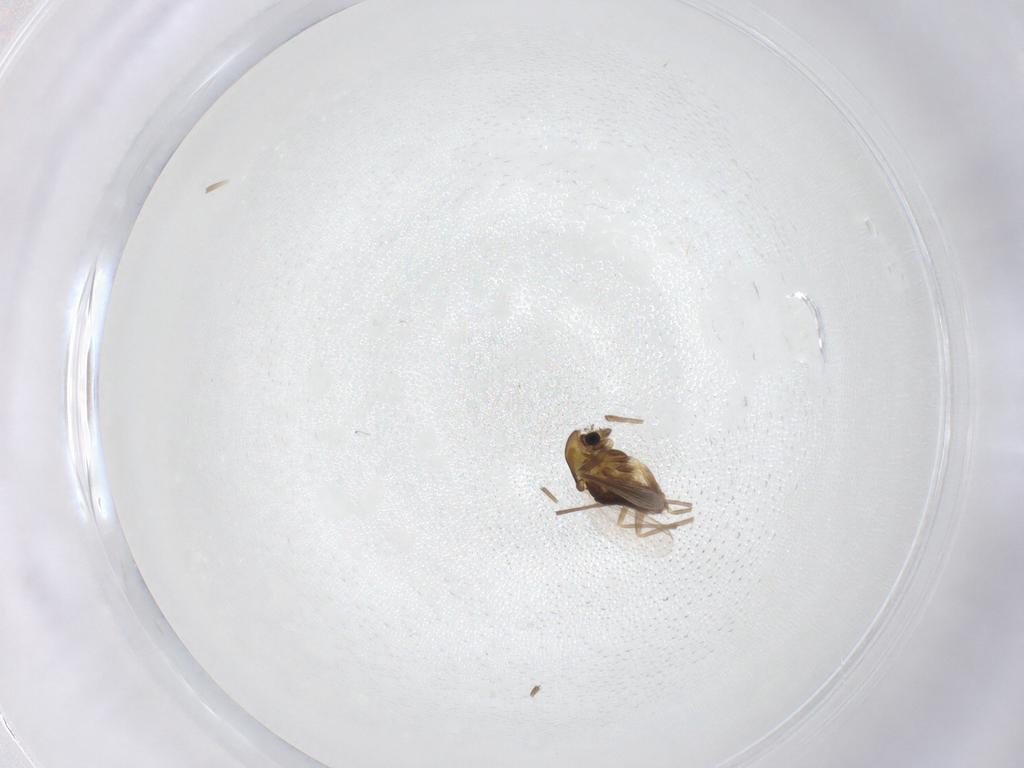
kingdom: Animalia
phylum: Arthropoda
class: Insecta
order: Diptera
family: Chironomidae
